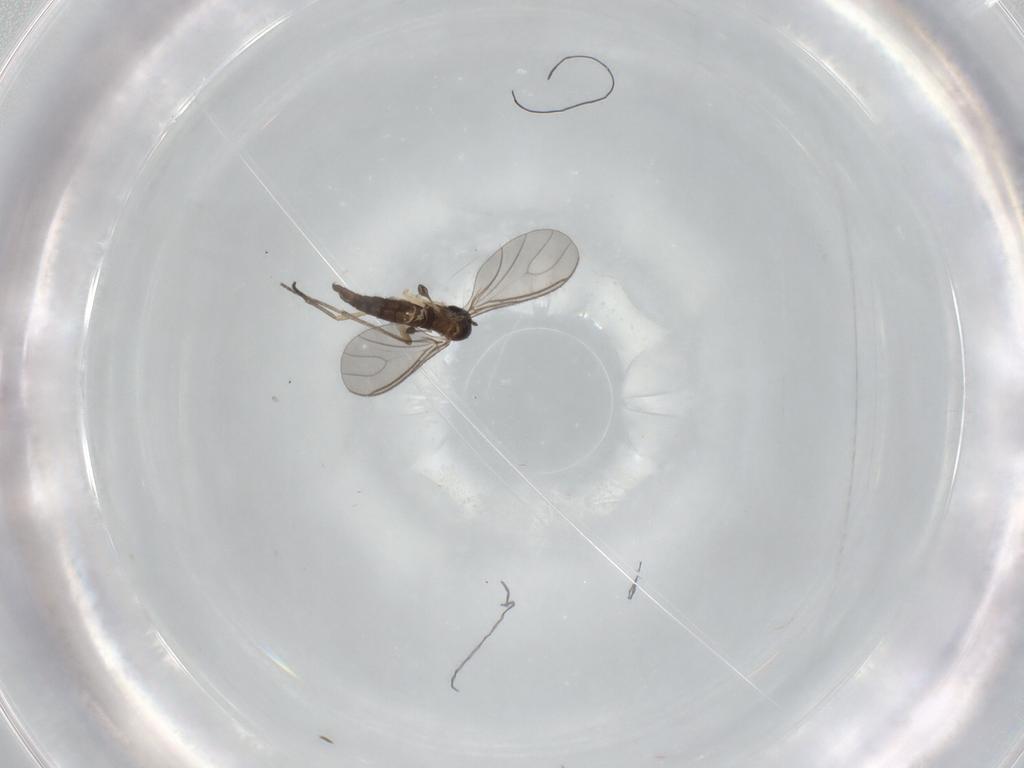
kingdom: Animalia
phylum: Arthropoda
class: Insecta
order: Diptera
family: Sciaridae
